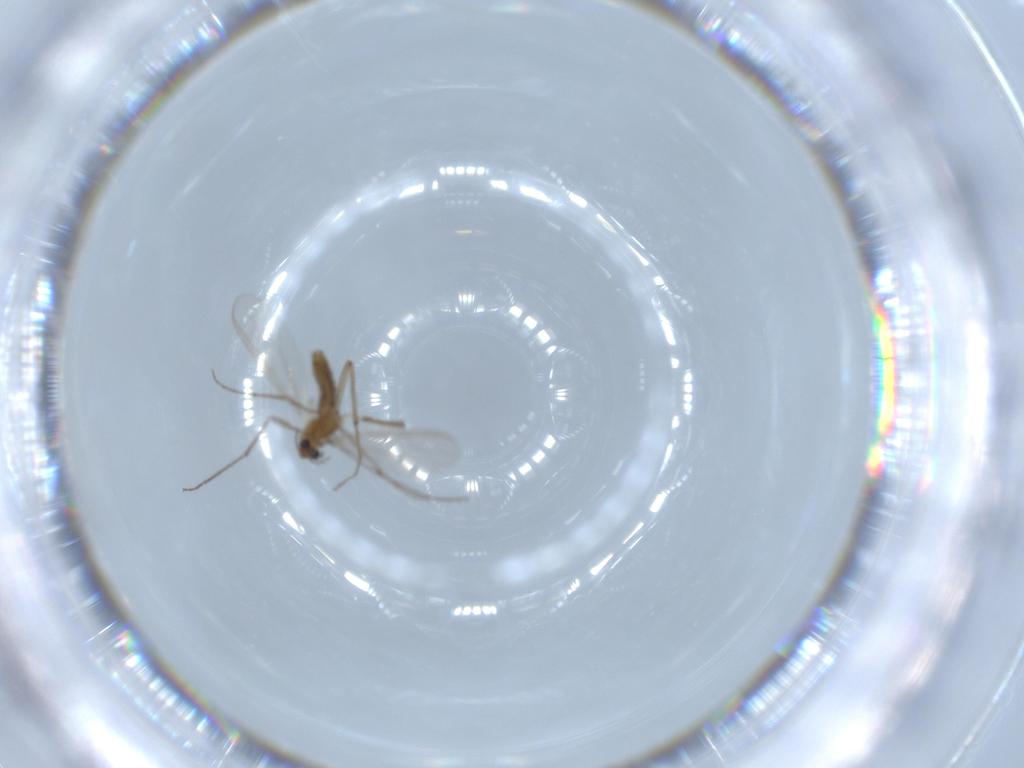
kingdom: Animalia
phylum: Arthropoda
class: Insecta
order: Diptera
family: Chironomidae
